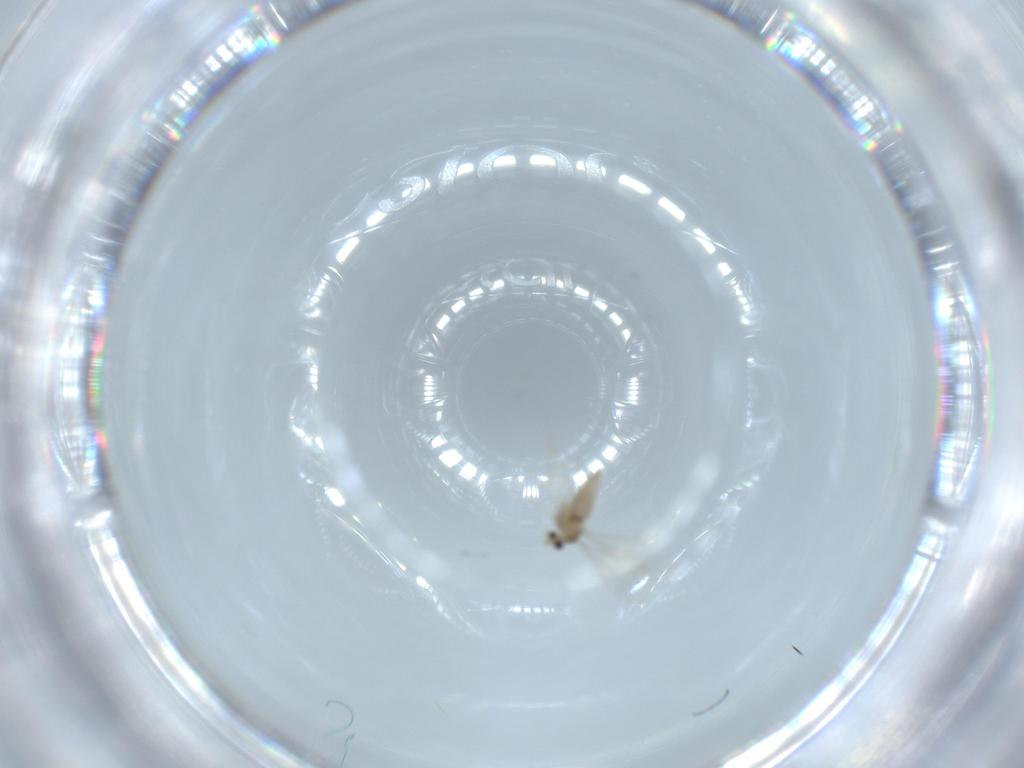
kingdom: Animalia
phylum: Arthropoda
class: Insecta
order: Diptera
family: Cecidomyiidae
